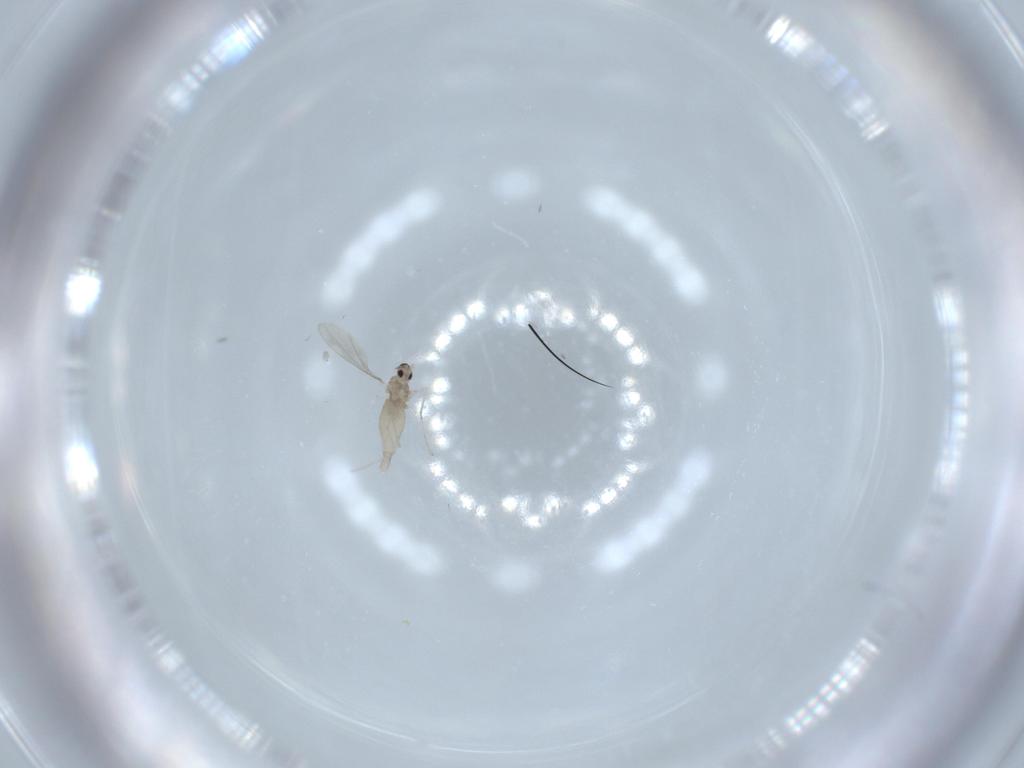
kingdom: Animalia
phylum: Arthropoda
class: Insecta
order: Diptera
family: Cecidomyiidae
